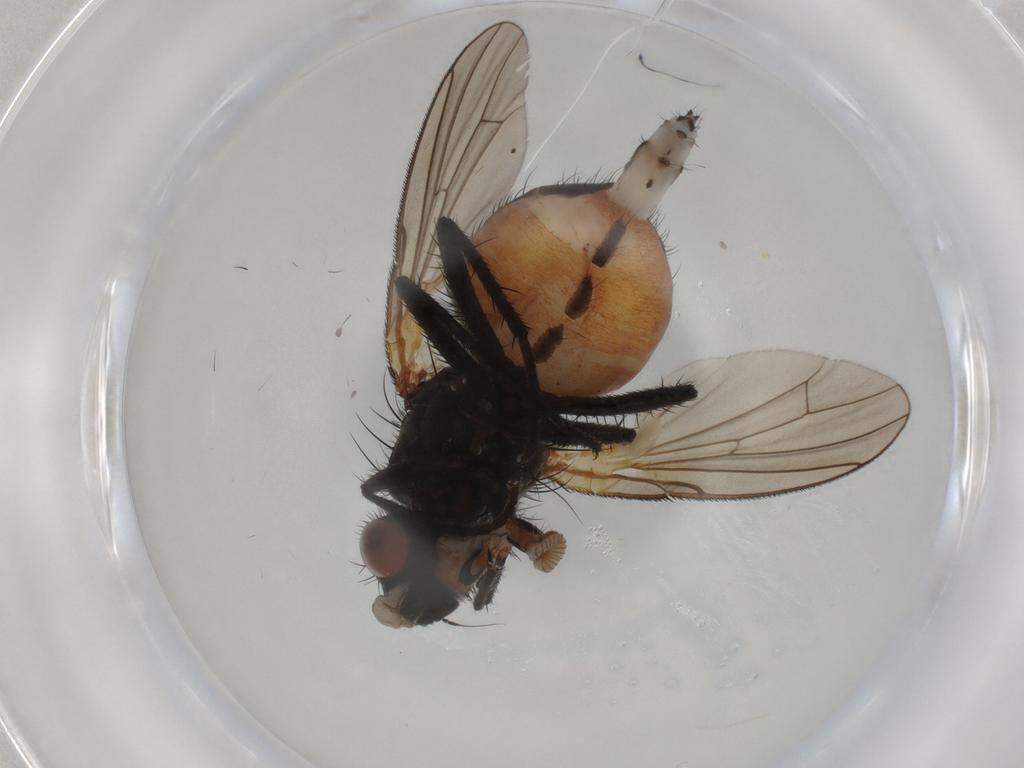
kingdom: Animalia
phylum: Arthropoda
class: Insecta
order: Diptera
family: Anthomyiidae
